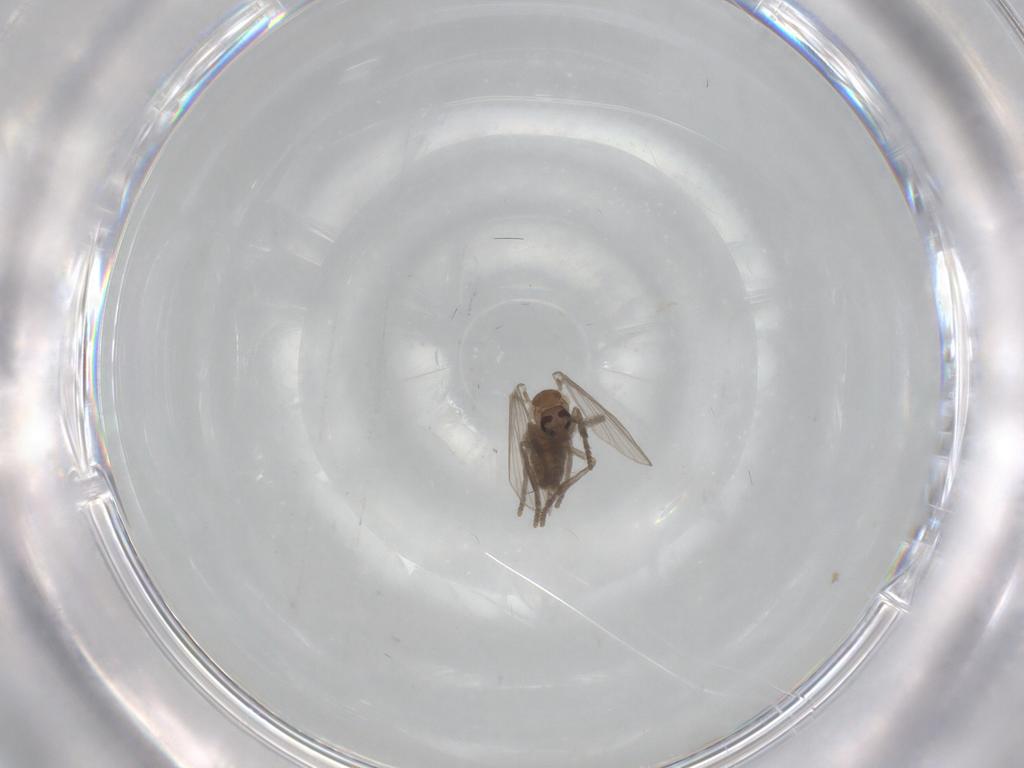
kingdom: Animalia
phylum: Arthropoda
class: Insecta
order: Diptera
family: Psychodidae
